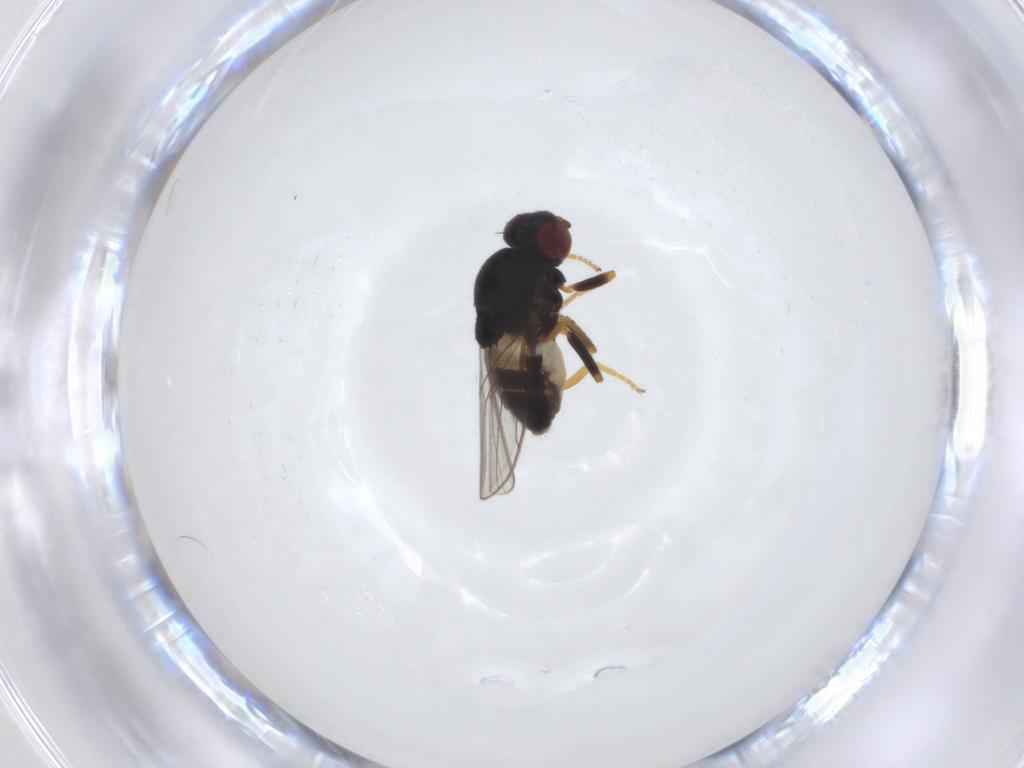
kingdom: Animalia
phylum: Arthropoda
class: Insecta
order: Diptera
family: Chloropidae
